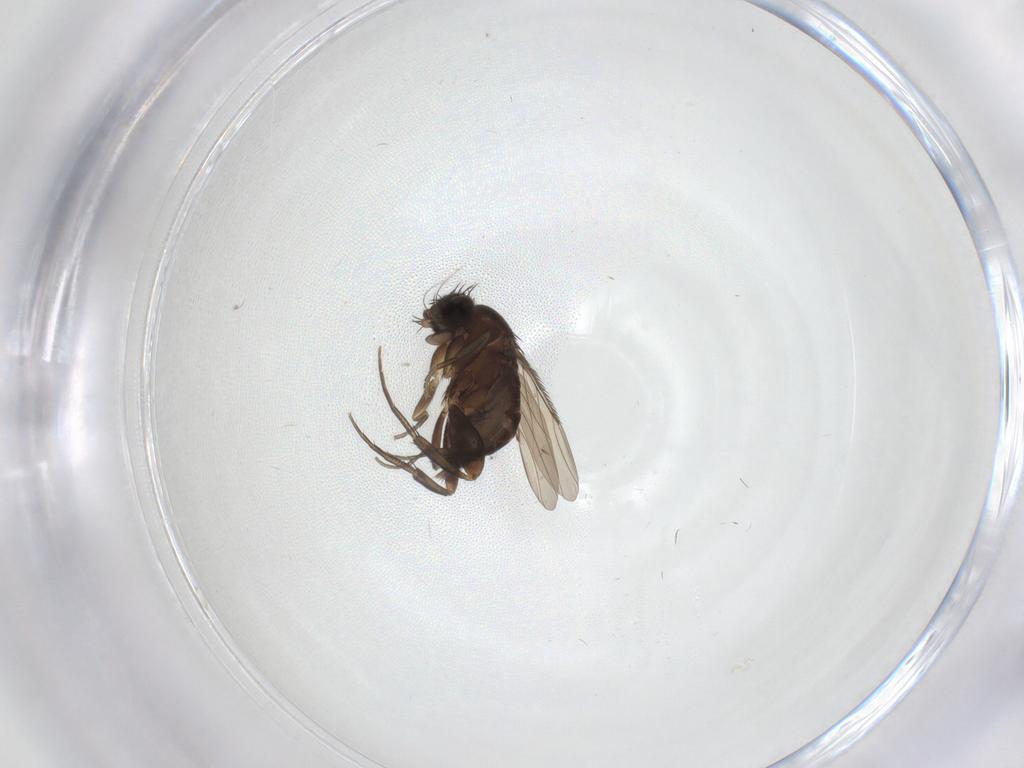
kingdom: Animalia
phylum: Arthropoda
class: Insecta
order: Diptera
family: Phoridae
